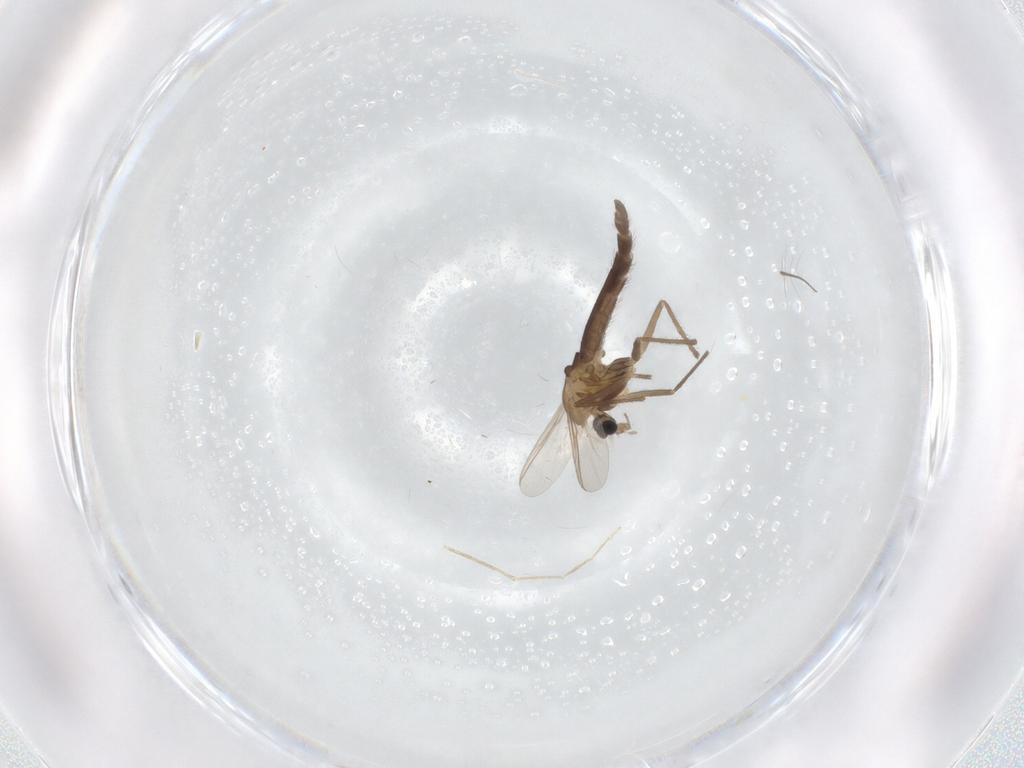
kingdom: Animalia
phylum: Arthropoda
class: Insecta
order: Diptera
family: Chironomidae
